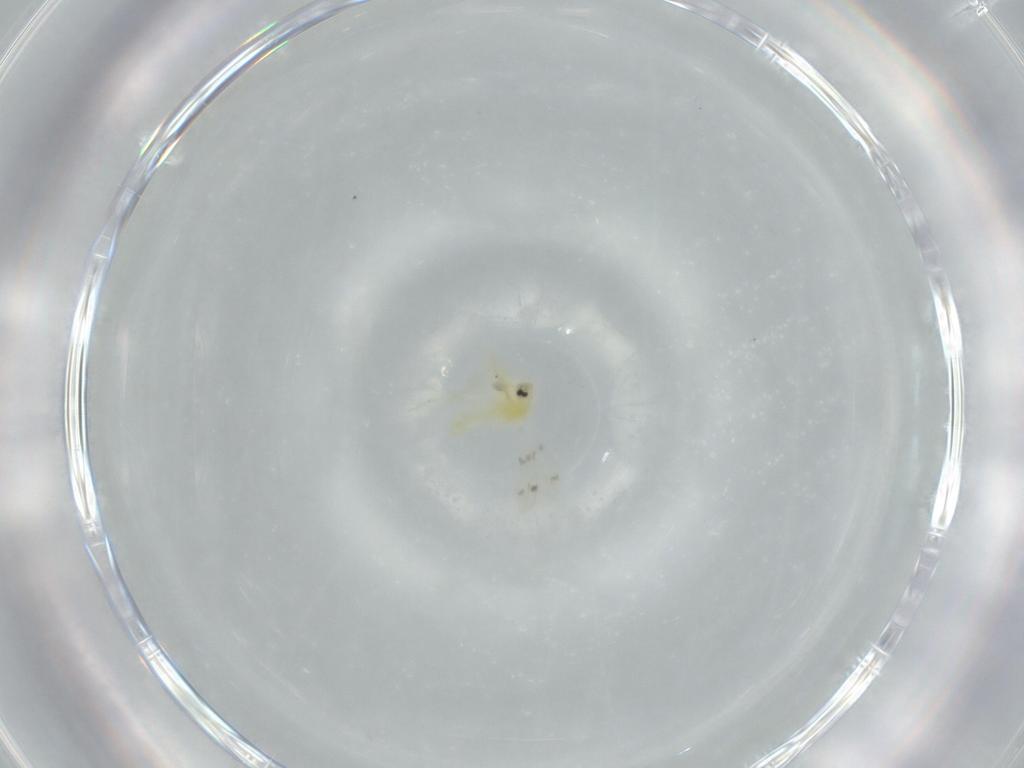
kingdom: Animalia
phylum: Arthropoda
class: Insecta
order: Hemiptera
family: Aleyrodidae
